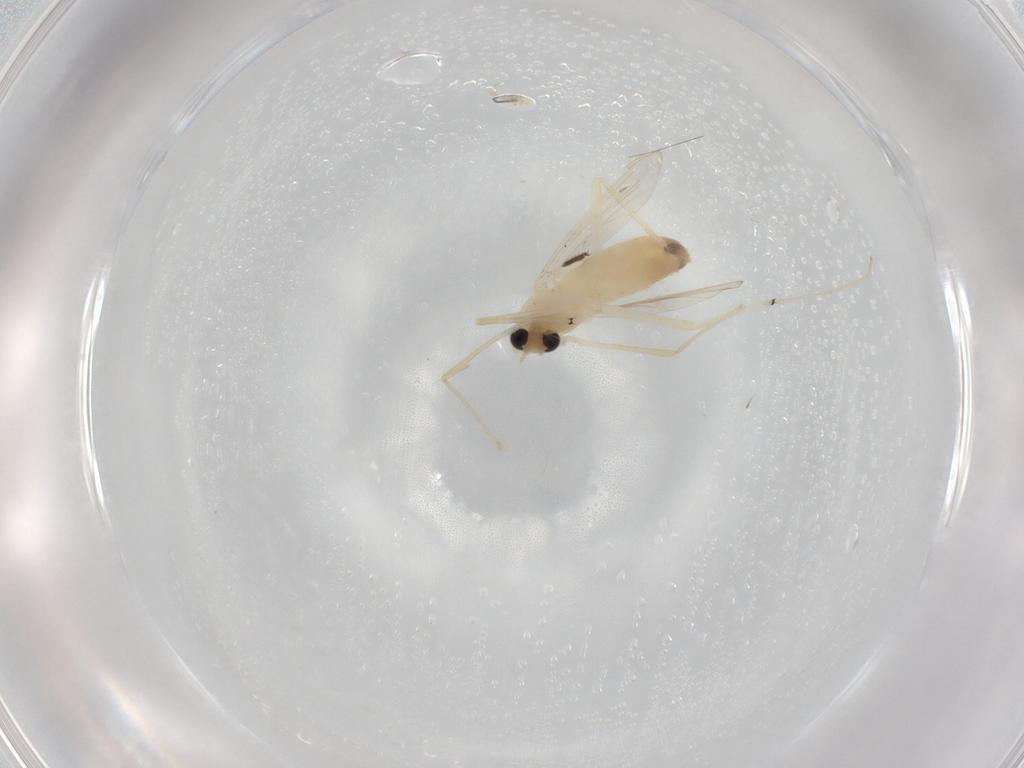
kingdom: Animalia
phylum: Arthropoda
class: Insecta
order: Diptera
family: Chironomidae
